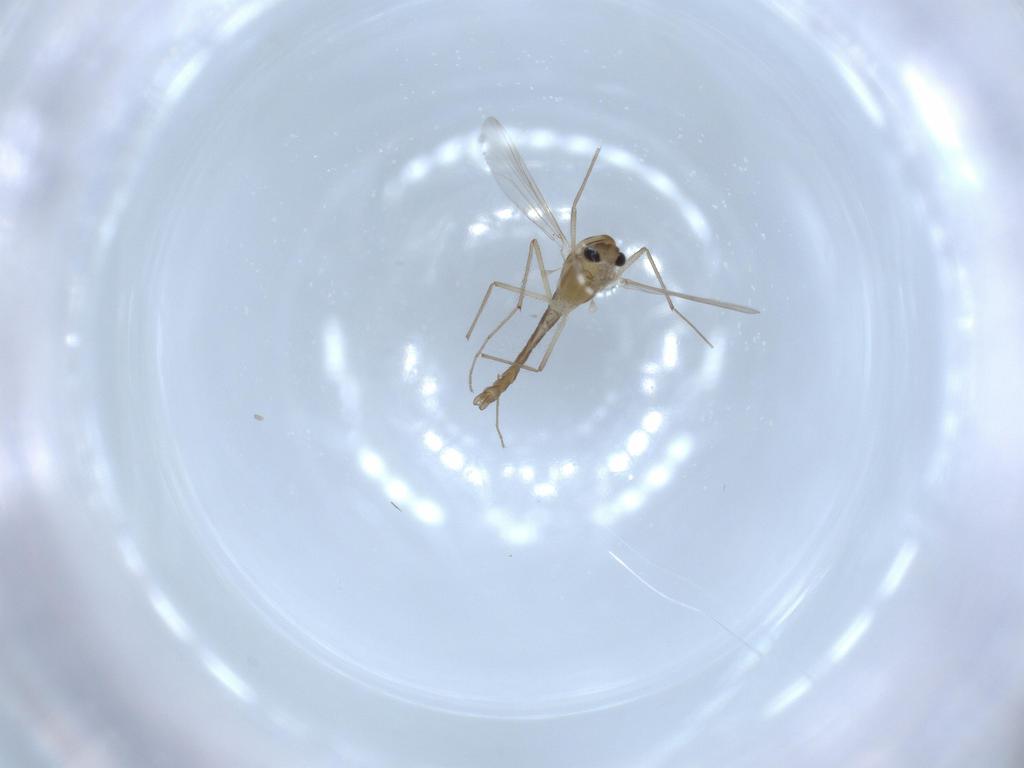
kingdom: Animalia
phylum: Arthropoda
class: Insecta
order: Diptera
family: Chironomidae
